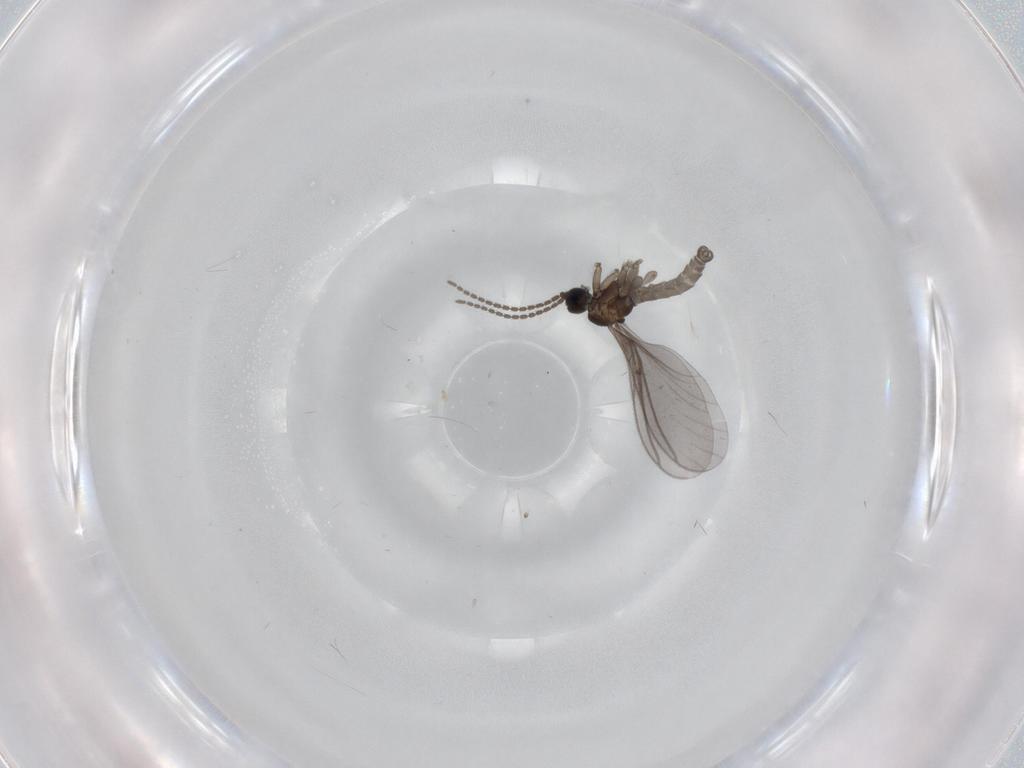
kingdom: Animalia
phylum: Arthropoda
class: Insecta
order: Diptera
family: Sciaridae
